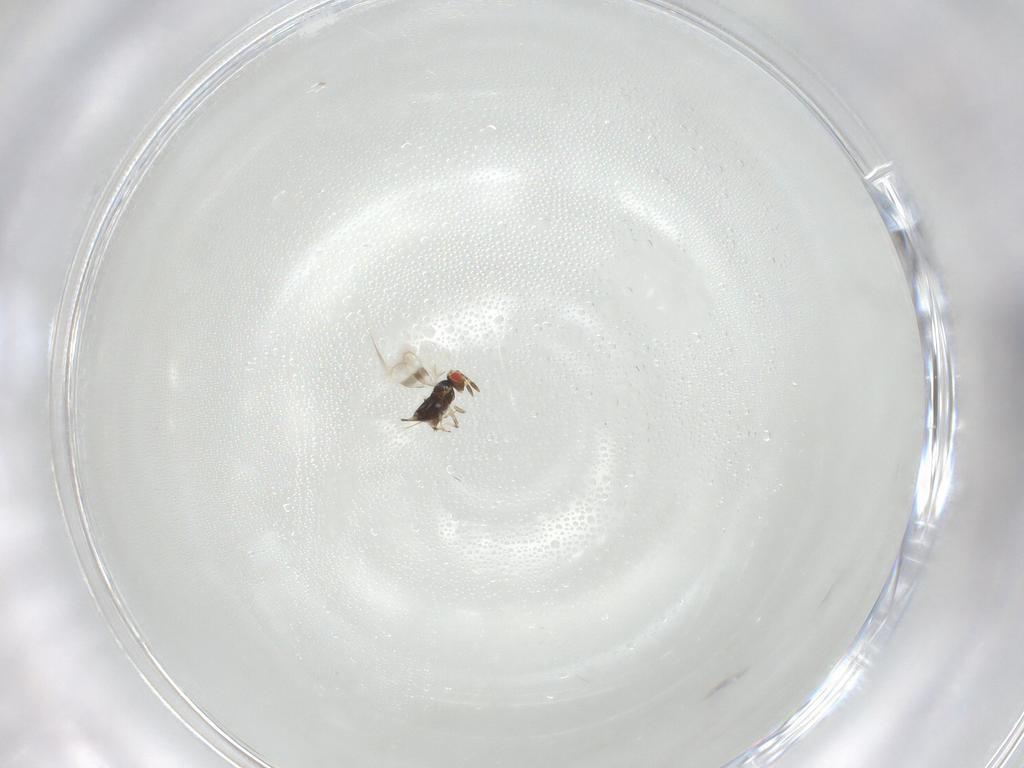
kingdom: Animalia
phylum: Arthropoda
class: Insecta
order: Hymenoptera
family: Azotidae
